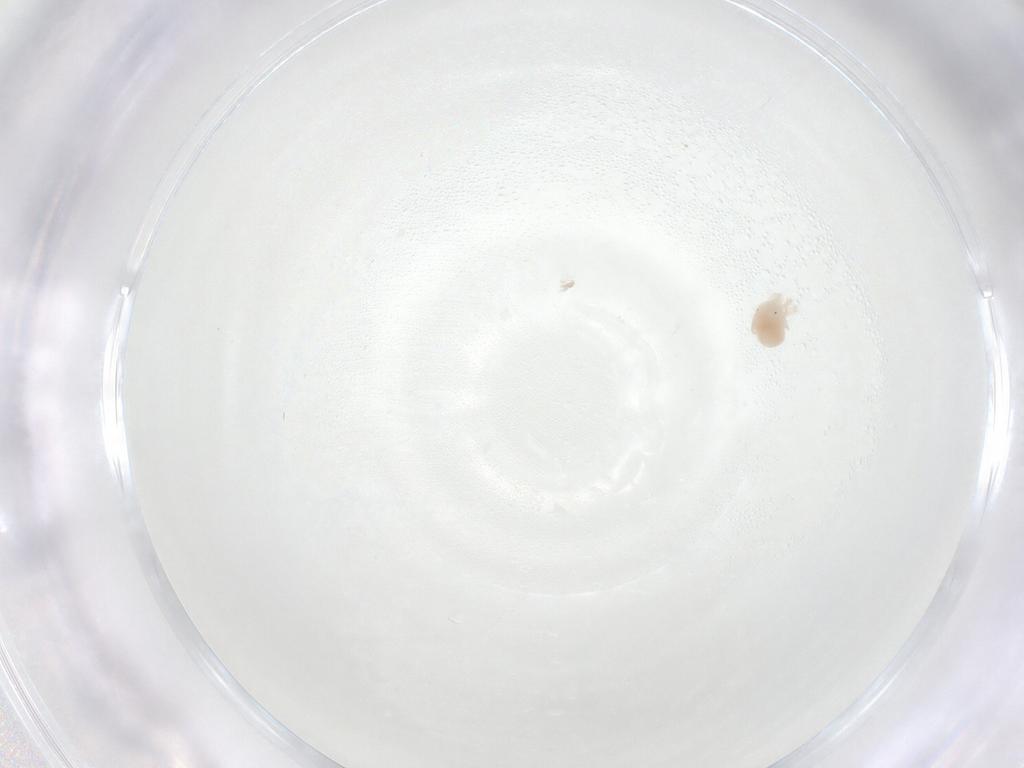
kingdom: Animalia
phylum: Arthropoda
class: Arachnida
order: Trombidiformes
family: Anystidae
